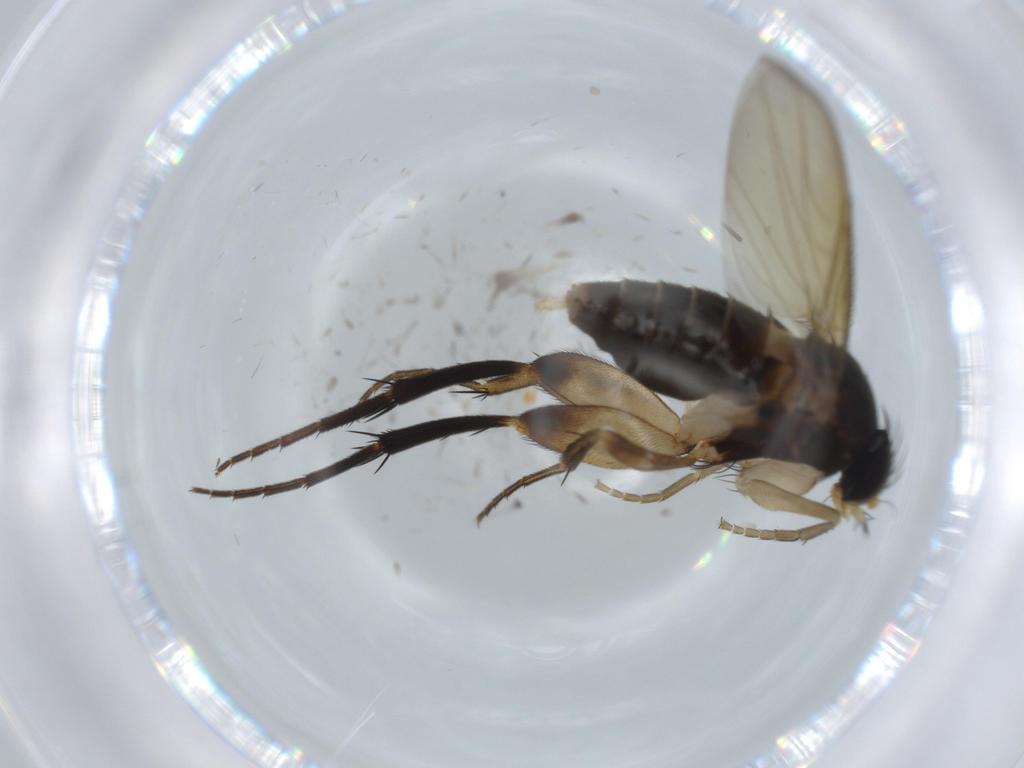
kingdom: Animalia
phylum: Arthropoda
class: Insecta
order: Diptera
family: Phoridae
